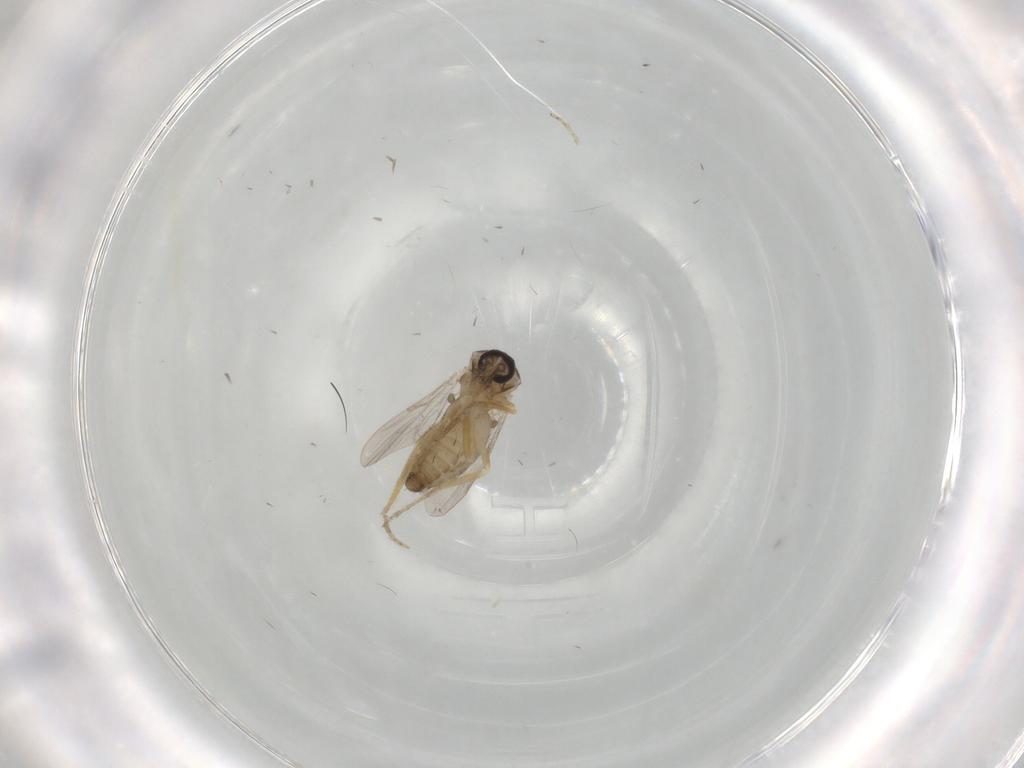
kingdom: Animalia
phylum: Arthropoda
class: Insecta
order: Diptera
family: Ceratopogonidae
